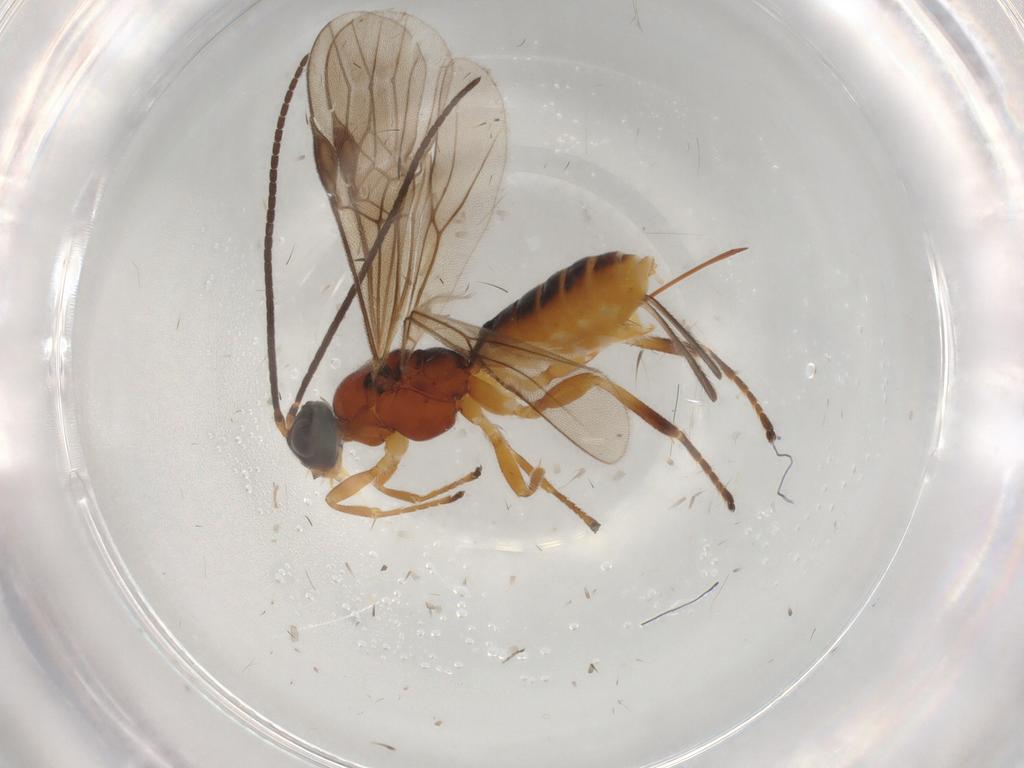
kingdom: Animalia
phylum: Arthropoda
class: Insecta
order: Hymenoptera
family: Braconidae
